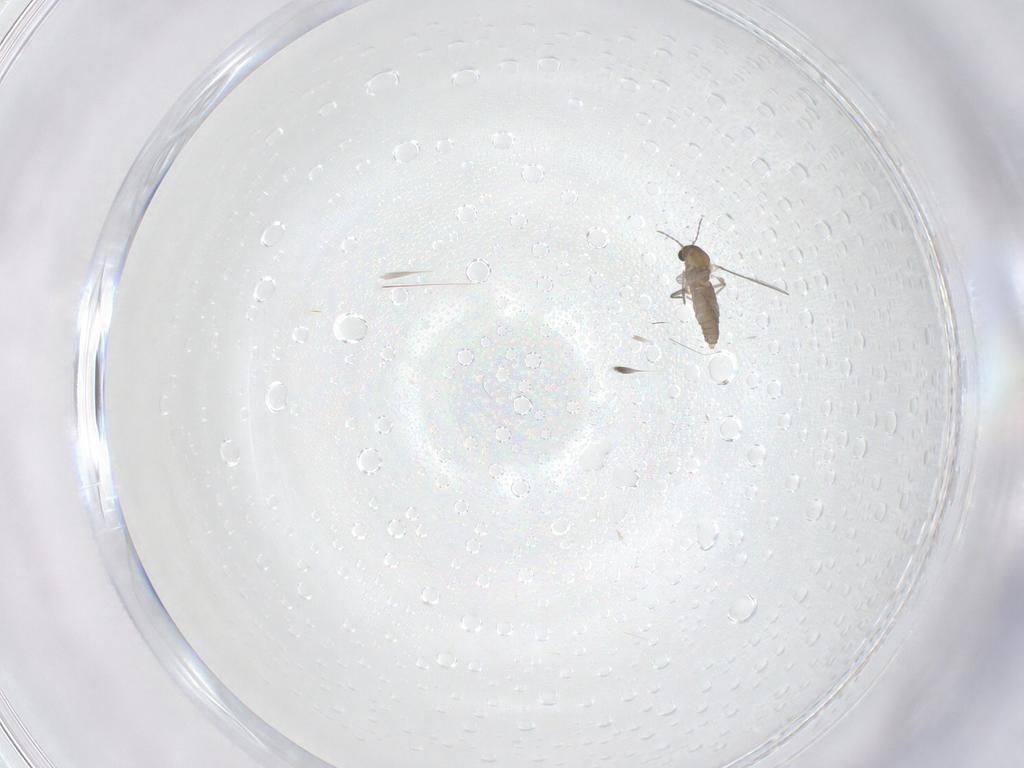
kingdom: Animalia
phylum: Arthropoda
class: Insecta
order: Diptera
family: Chironomidae
